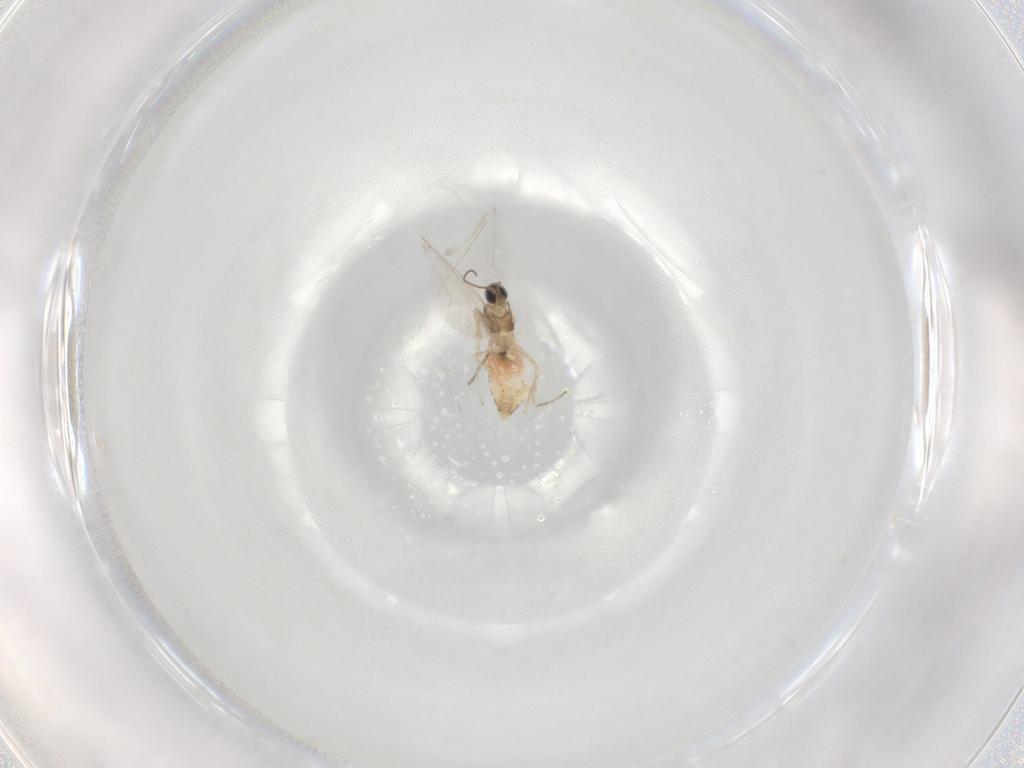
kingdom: Animalia
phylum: Arthropoda
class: Insecta
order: Diptera
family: Cecidomyiidae
